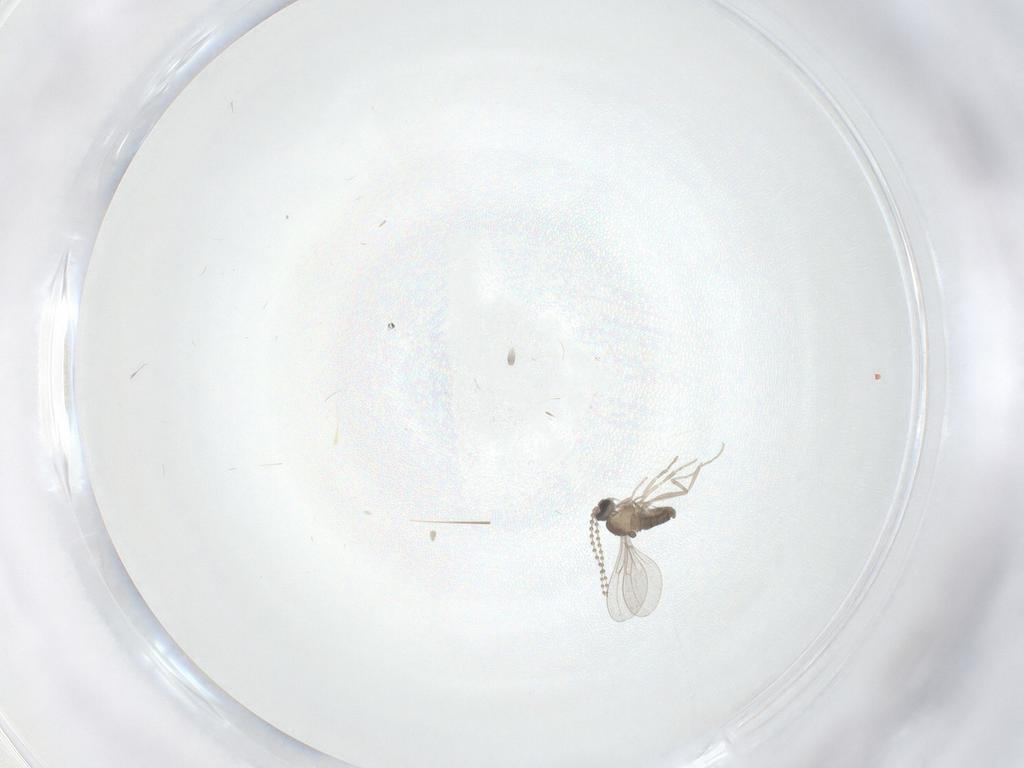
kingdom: Animalia
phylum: Arthropoda
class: Insecta
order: Diptera
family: Cecidomyiidae
